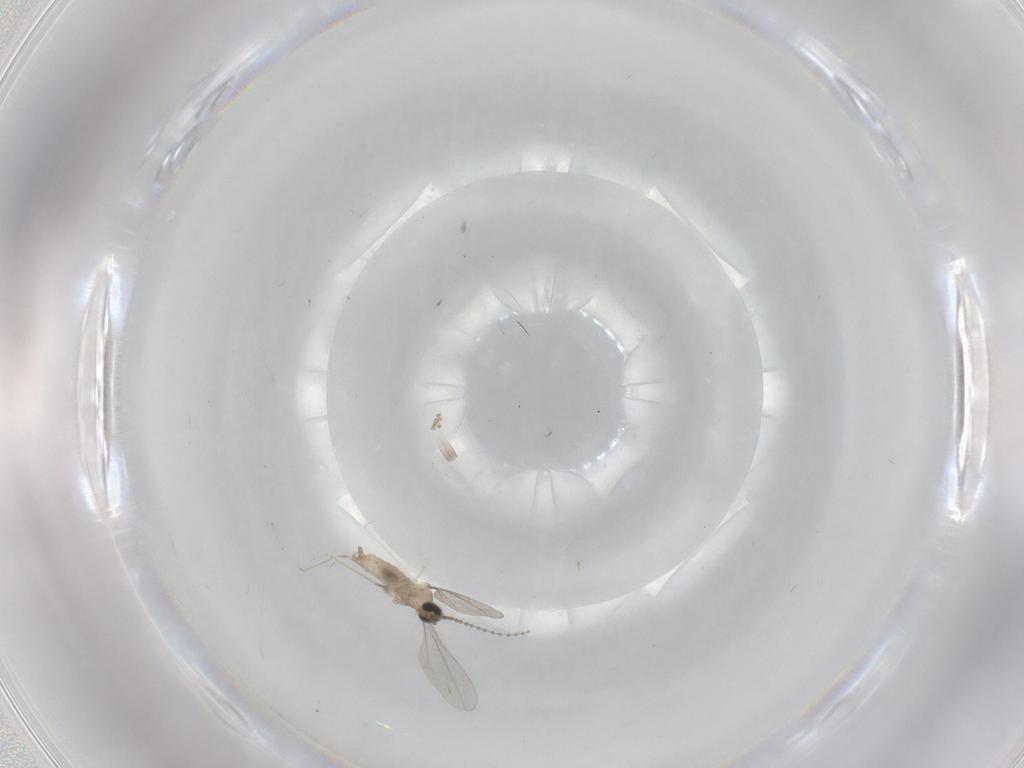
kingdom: Animalia
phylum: Arthropoda
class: Insecta
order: Diptera
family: Cecidomyiidae
